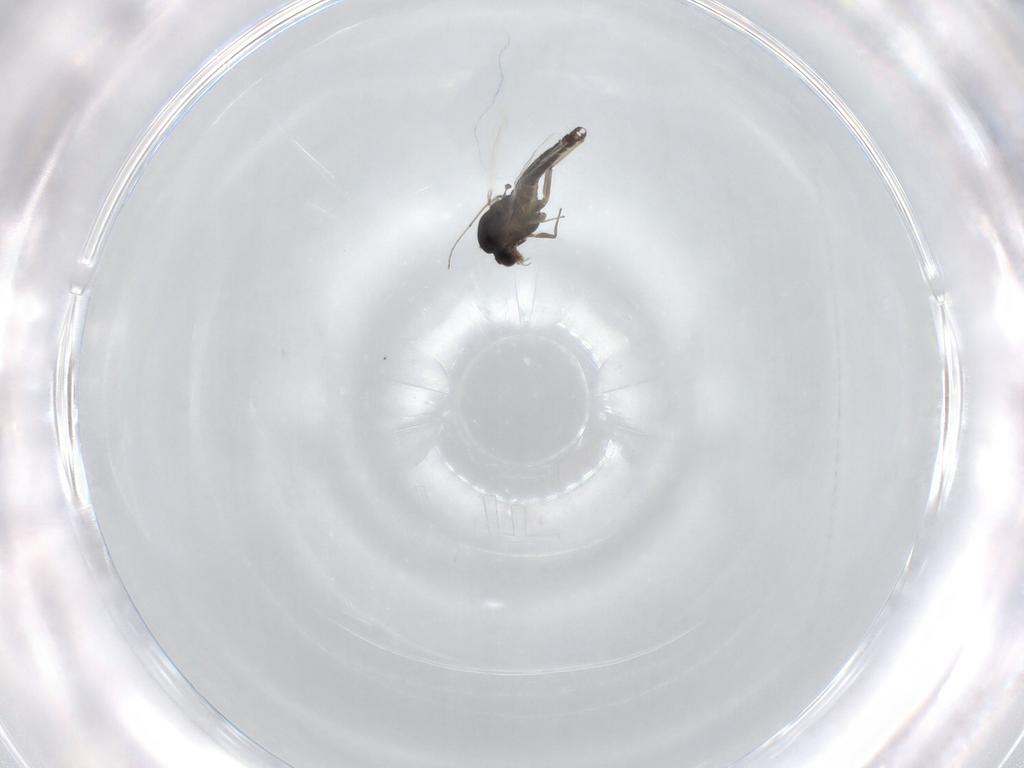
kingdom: Animalia
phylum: Arthropoda
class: Insecta
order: Diptera
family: Chironomidae
